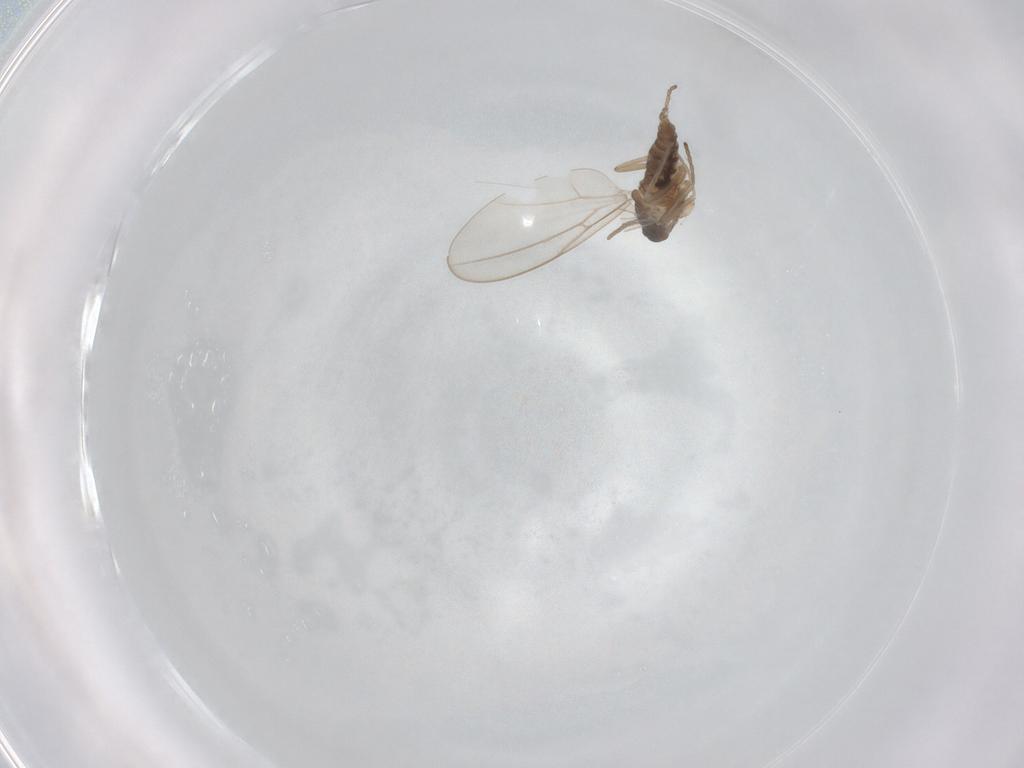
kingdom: Animalia
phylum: Arthropoda
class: Insecta
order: Diptera
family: Cecidomyiidae
